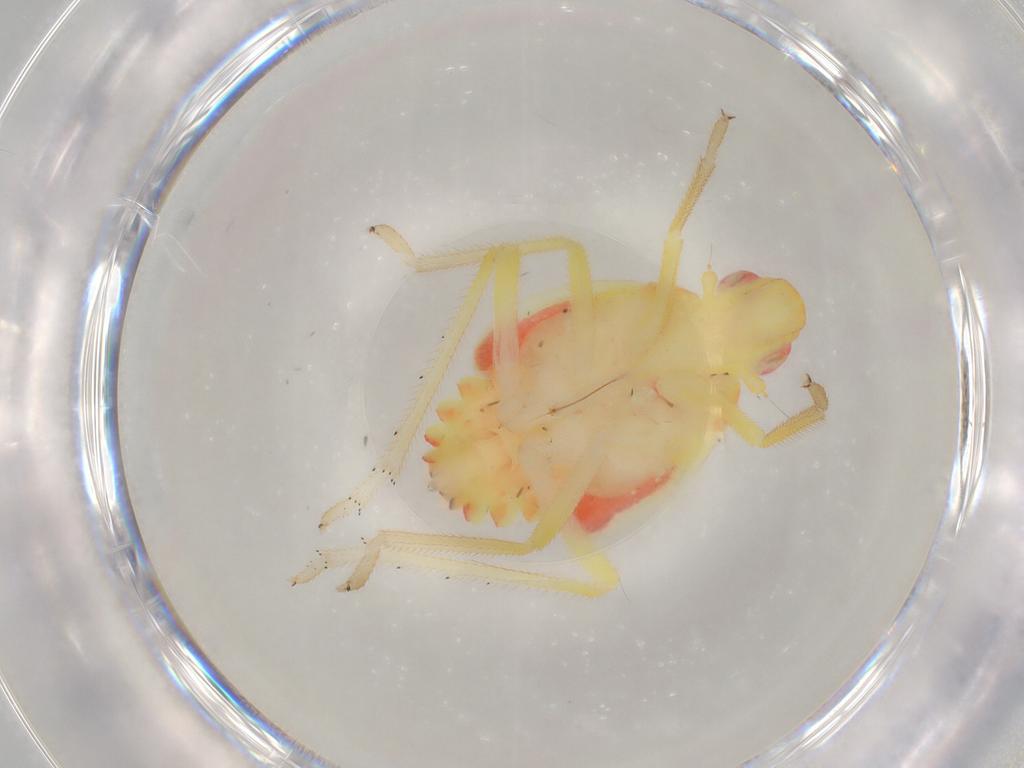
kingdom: Animalia
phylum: Arthropoda
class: Insecta
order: Hemiptera
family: Tropiduchidae
